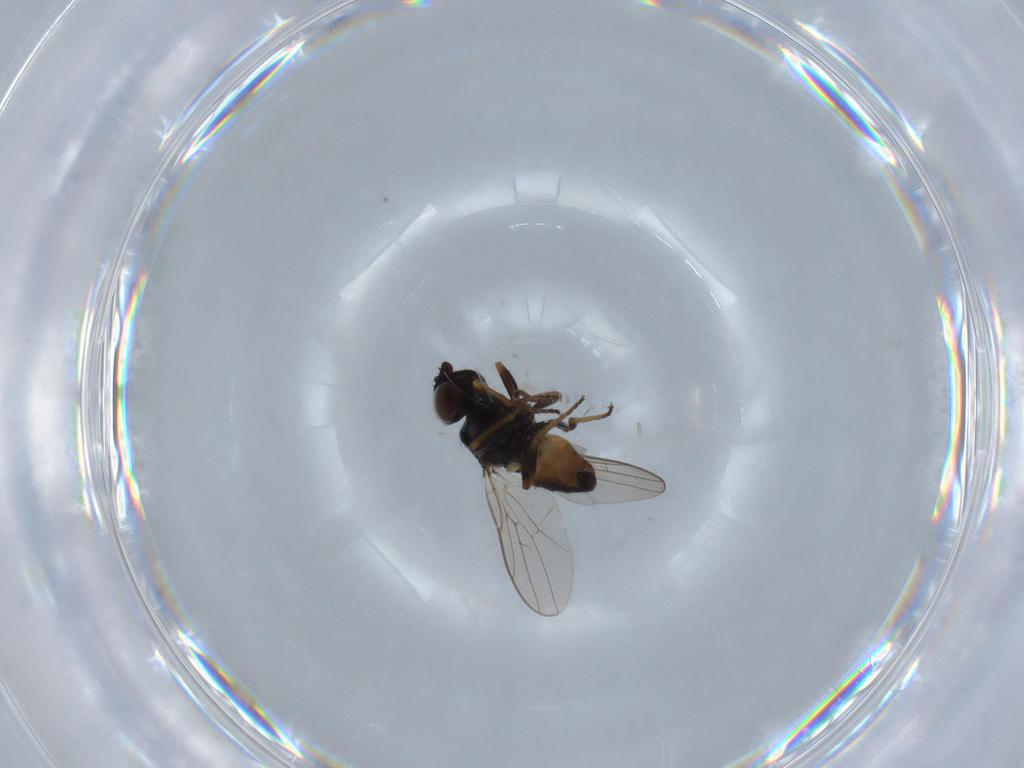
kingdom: Animalia
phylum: Arthropoda
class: Insecta
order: Diptera
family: Chloropidae
